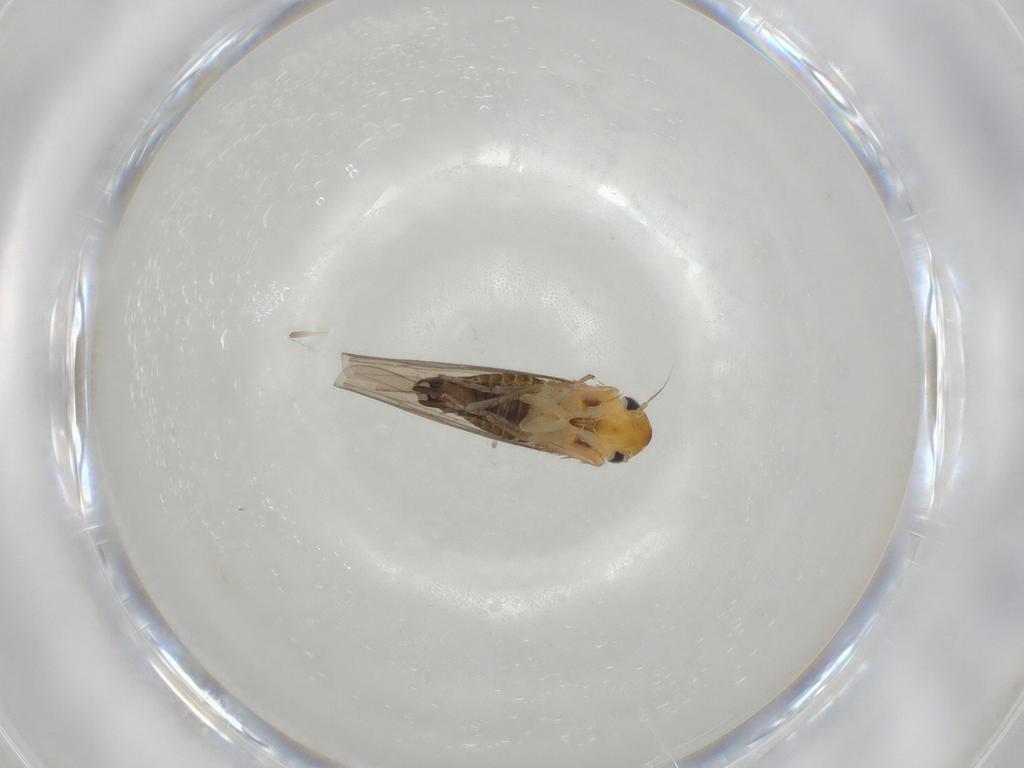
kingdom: Animalia
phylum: Arthropoda
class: Insecta
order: Hemiptera
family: Cicadellidae
